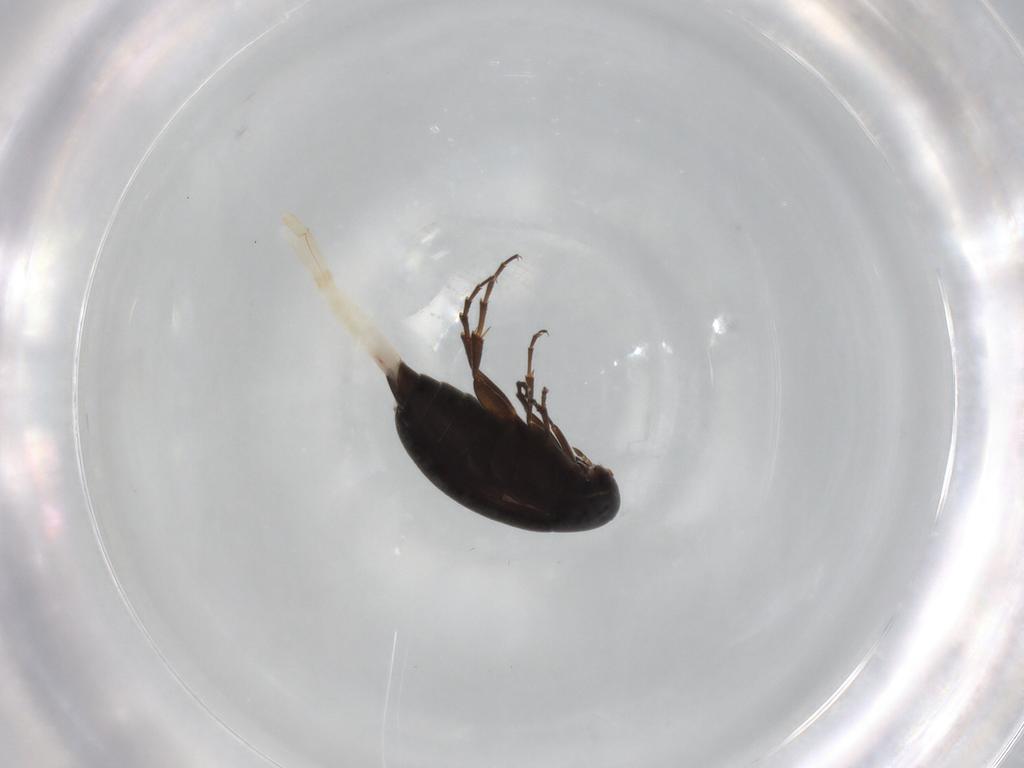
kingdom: Animalia
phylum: Arthropoda
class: Insecta
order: Coleoptera
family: Scraptiidae
